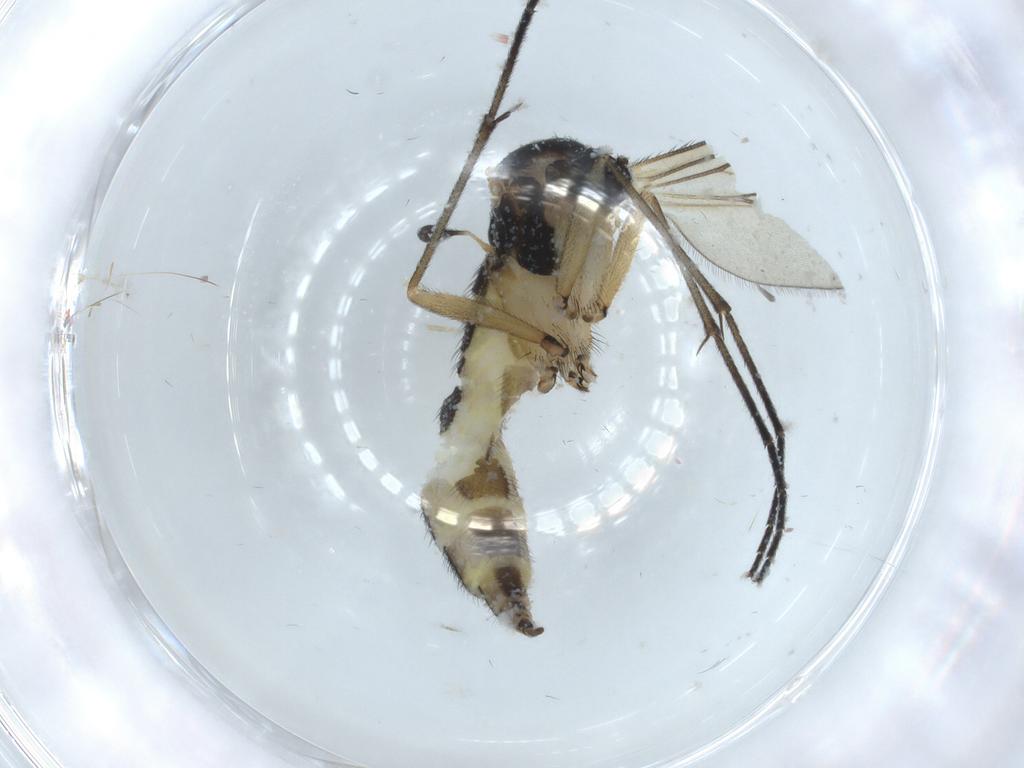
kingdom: Animalia
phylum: Arthropoda
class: Insecta
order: Diptera
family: Sciaridae
